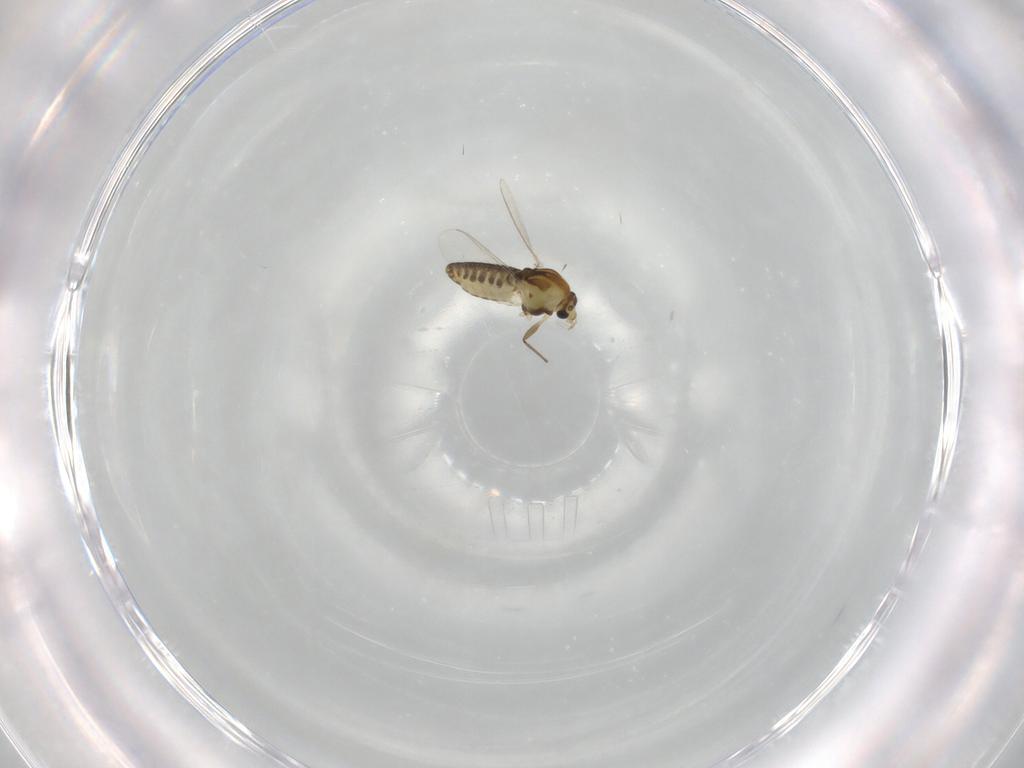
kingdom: Animalia
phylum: Arthropoda
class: Insecta
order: Diptera
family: Chironomidae
